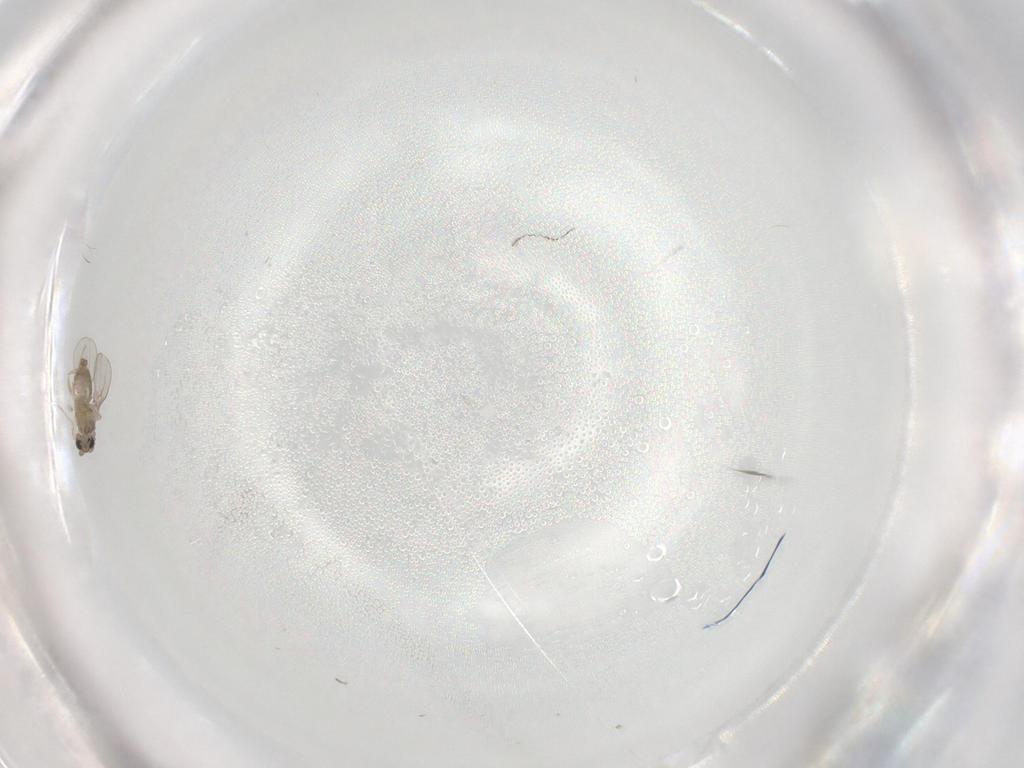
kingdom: Animalia
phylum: Arthropoda
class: Insecta
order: Diptera
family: Cecidomyiidae
